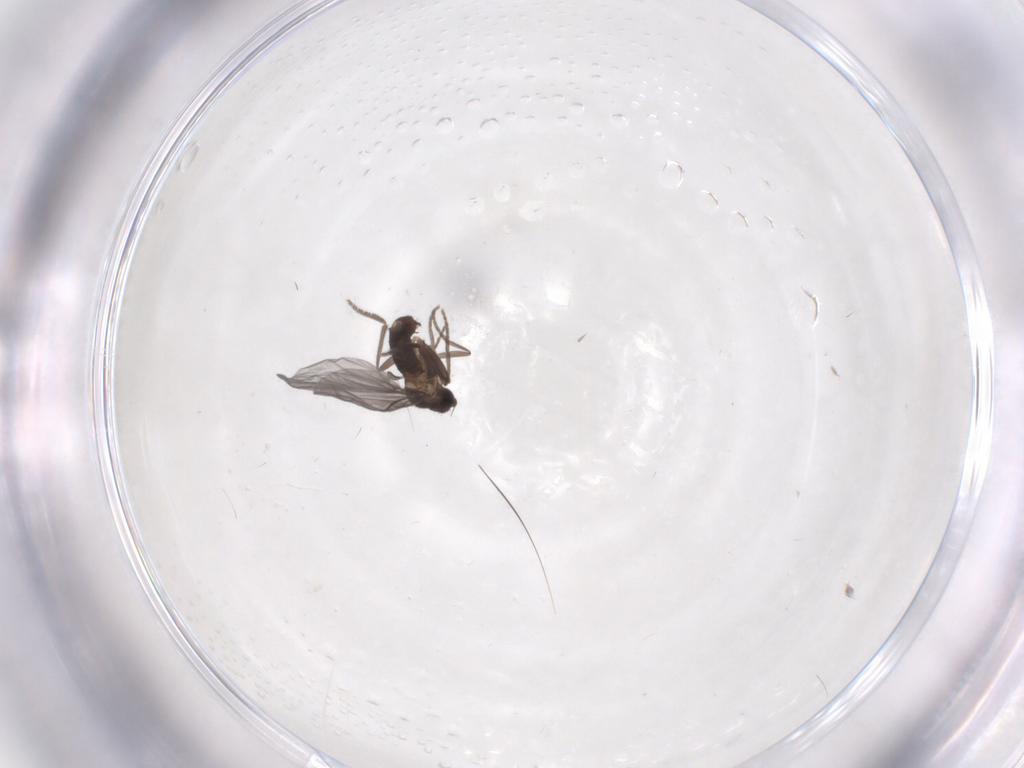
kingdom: Animalia
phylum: Arthropoda
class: Insecta
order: Diptera
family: Phoridae
